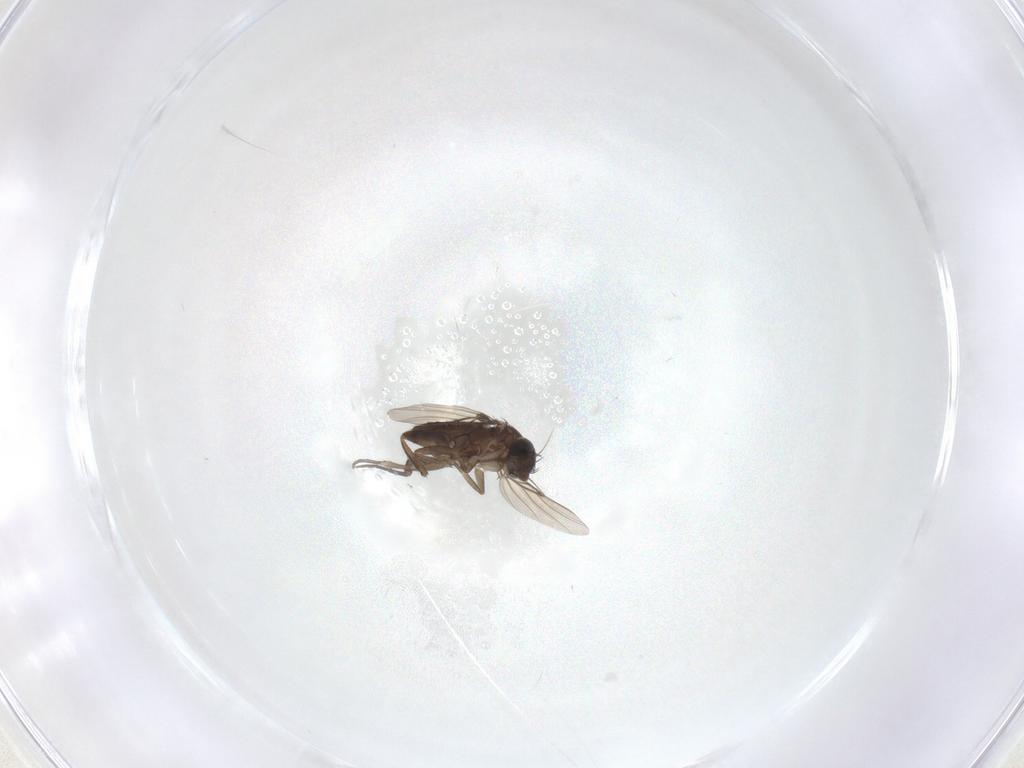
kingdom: Animalia
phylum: Arthropoda
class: Insecta
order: Diptera
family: Phoridae
